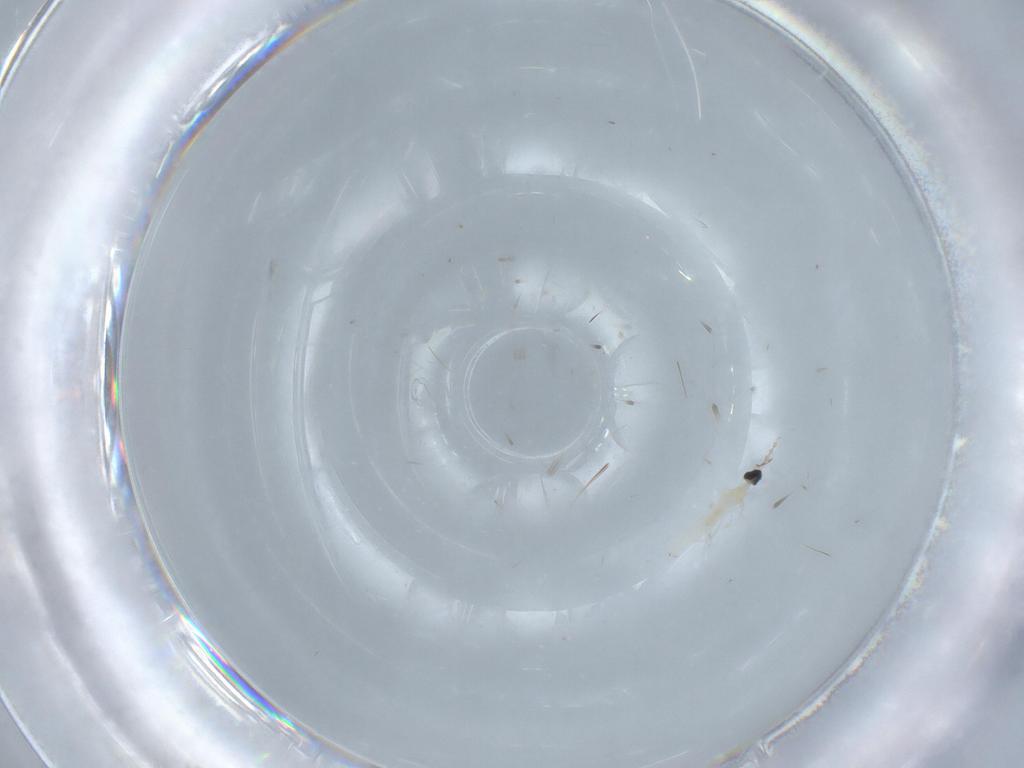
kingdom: Animalia
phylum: Arthropoda
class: Insecta
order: Diptera
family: Cecidomyiidae
